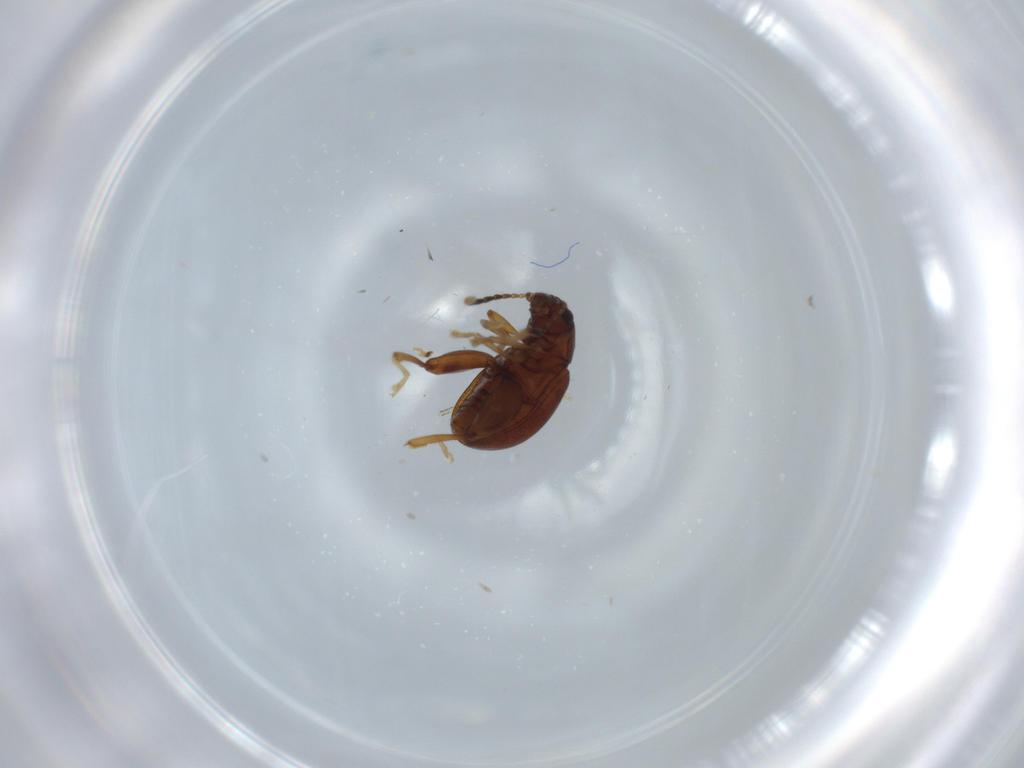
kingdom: Animalia
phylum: Arthropoda
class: Insecta
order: Coleoptera
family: Chrysomelidae
